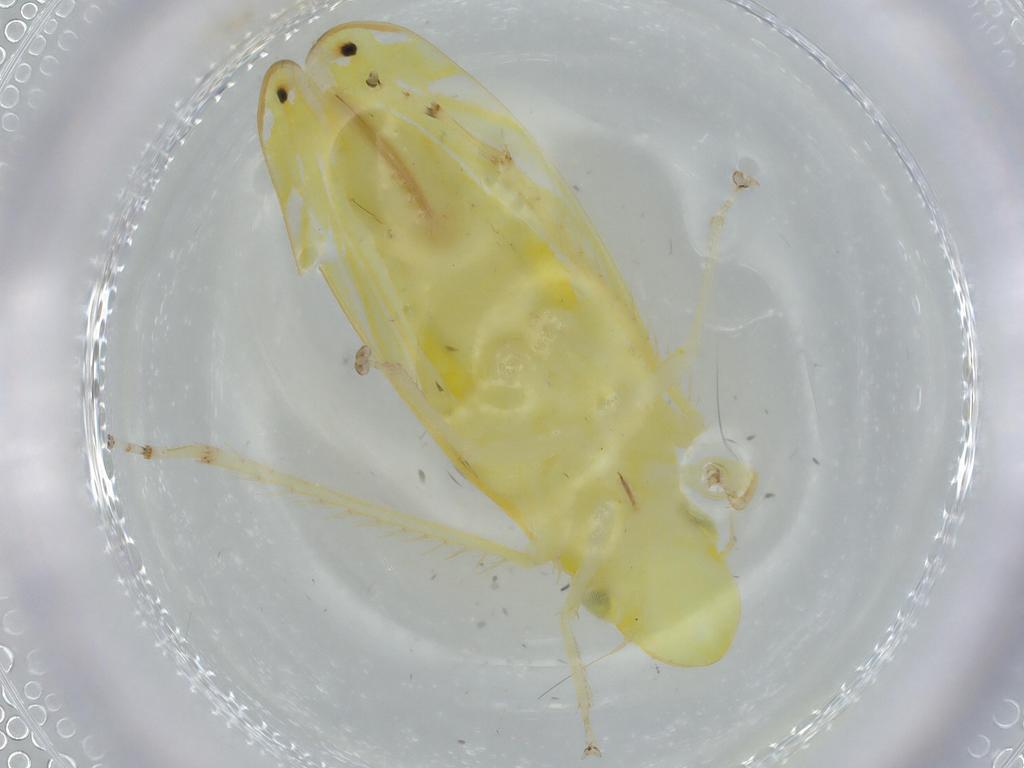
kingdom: Animalia
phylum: Arthropoda
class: Insecta
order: Hemiptera
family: Cicadellidae
